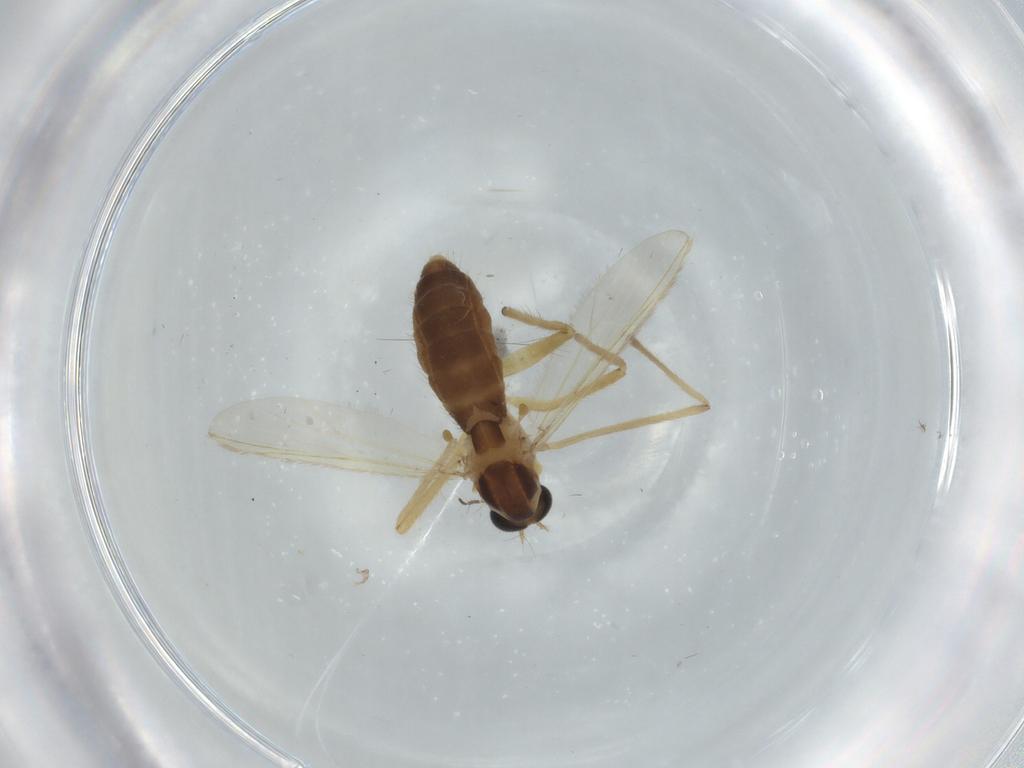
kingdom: Animalia
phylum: Arthropoda
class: Insecta
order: Diptera
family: Chironomidae
